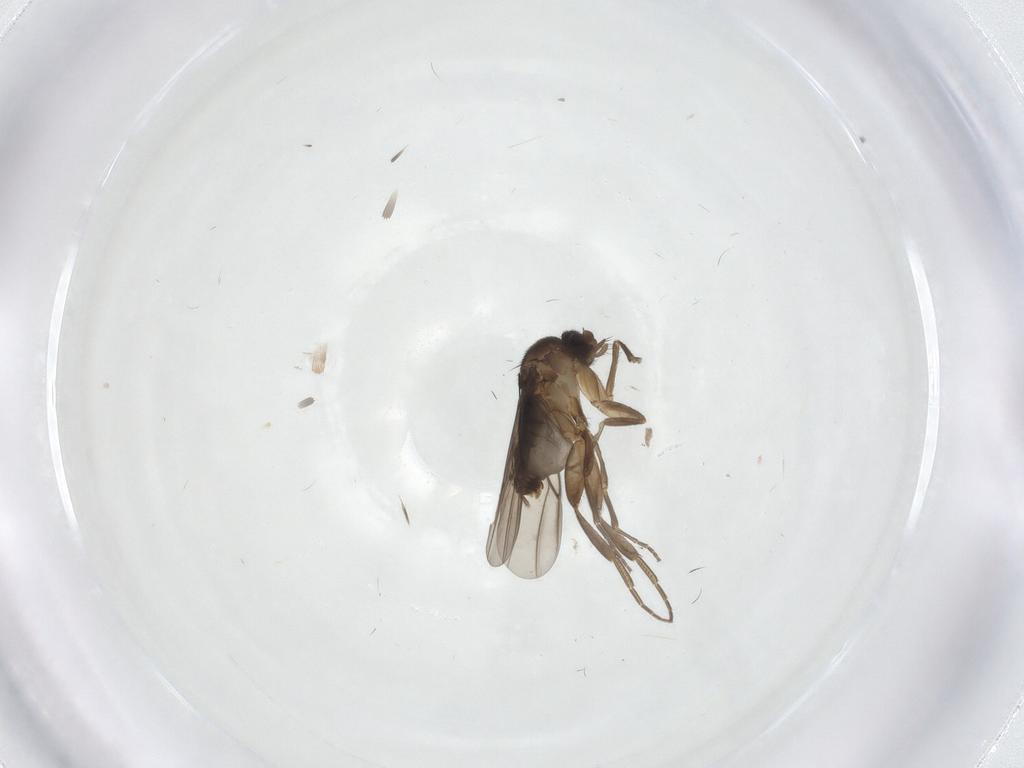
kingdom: Animalia
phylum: Arthropoda
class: Insecta
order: Diptera
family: Phoridae
